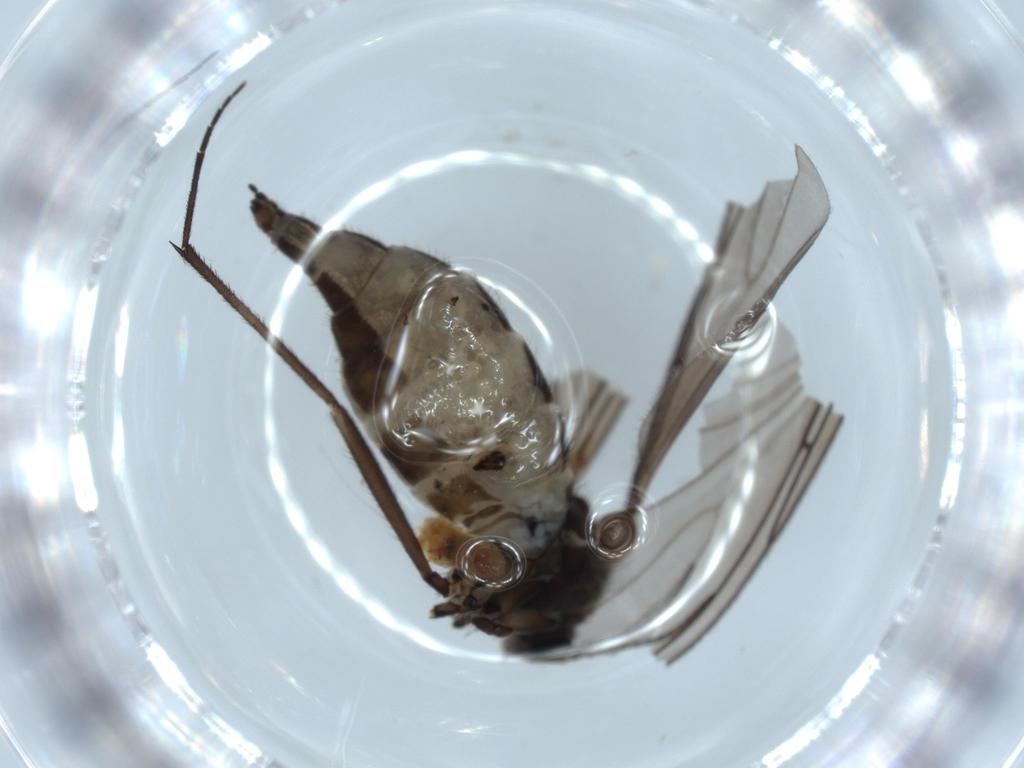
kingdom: Animalia
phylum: Arthropoda
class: Insecta
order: Diptera
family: Sciaridae
